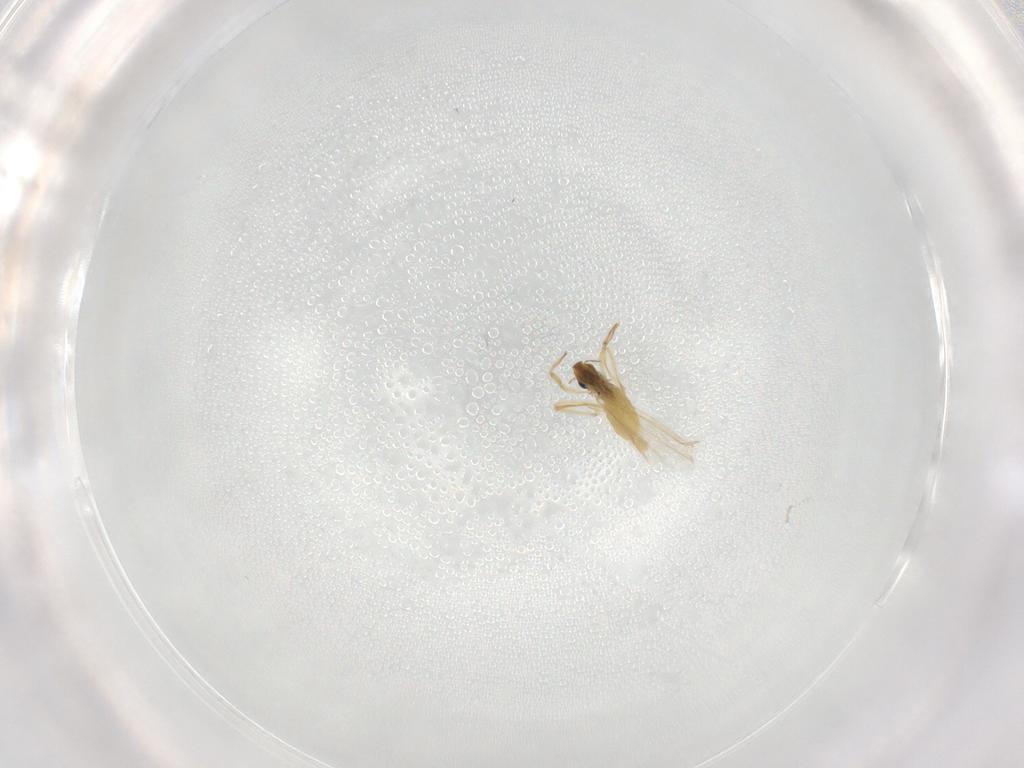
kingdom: Animalia
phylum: Arthropoda
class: Insecta
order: Diptera
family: Chironomidae
